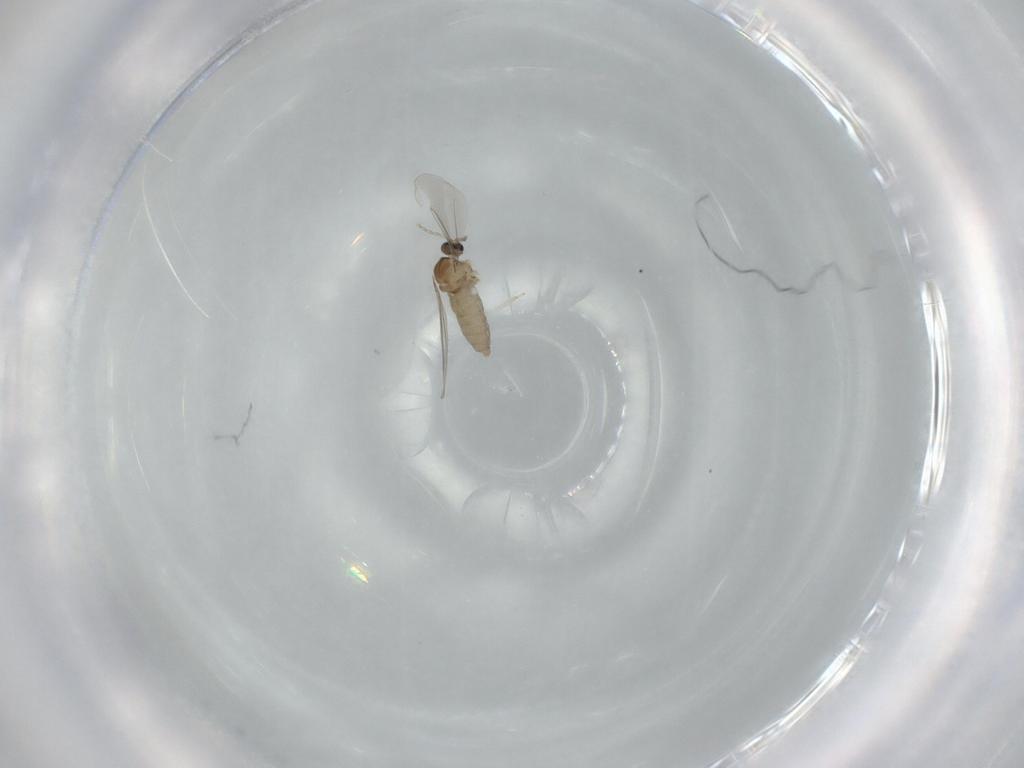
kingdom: Animalia
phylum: Arthropoda
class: Insecta
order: Diptera
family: Cecidomyiidae
